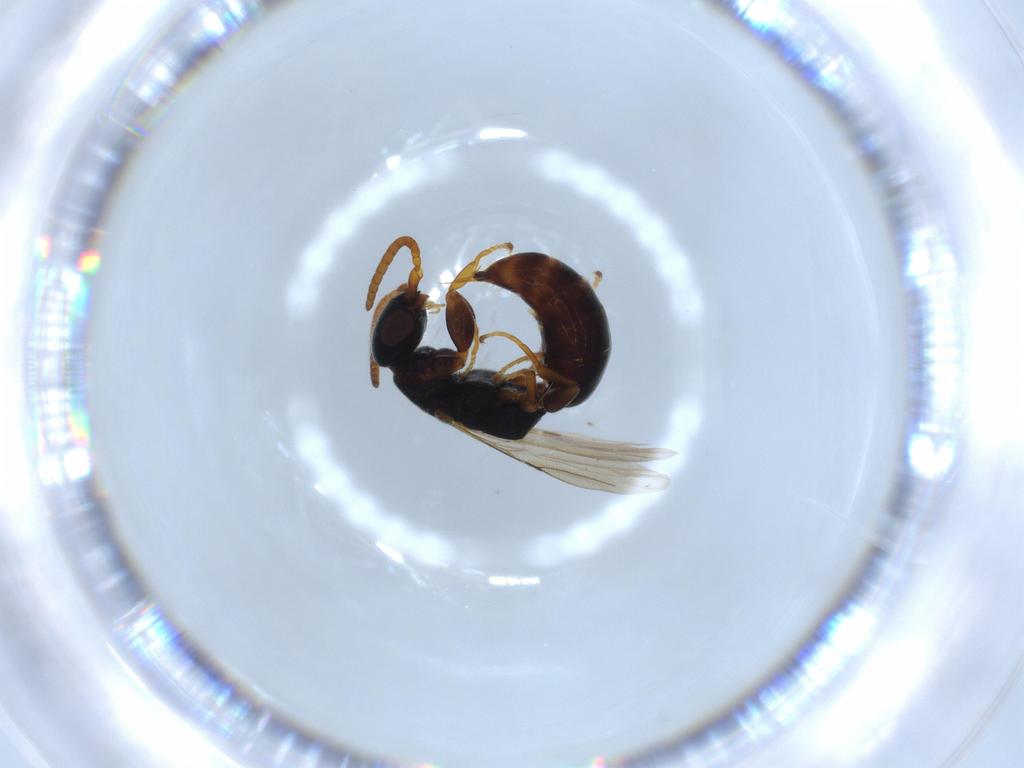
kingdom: Animalia
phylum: Arthropoda
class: Insecta
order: Hymenoptera
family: Bethylidae
